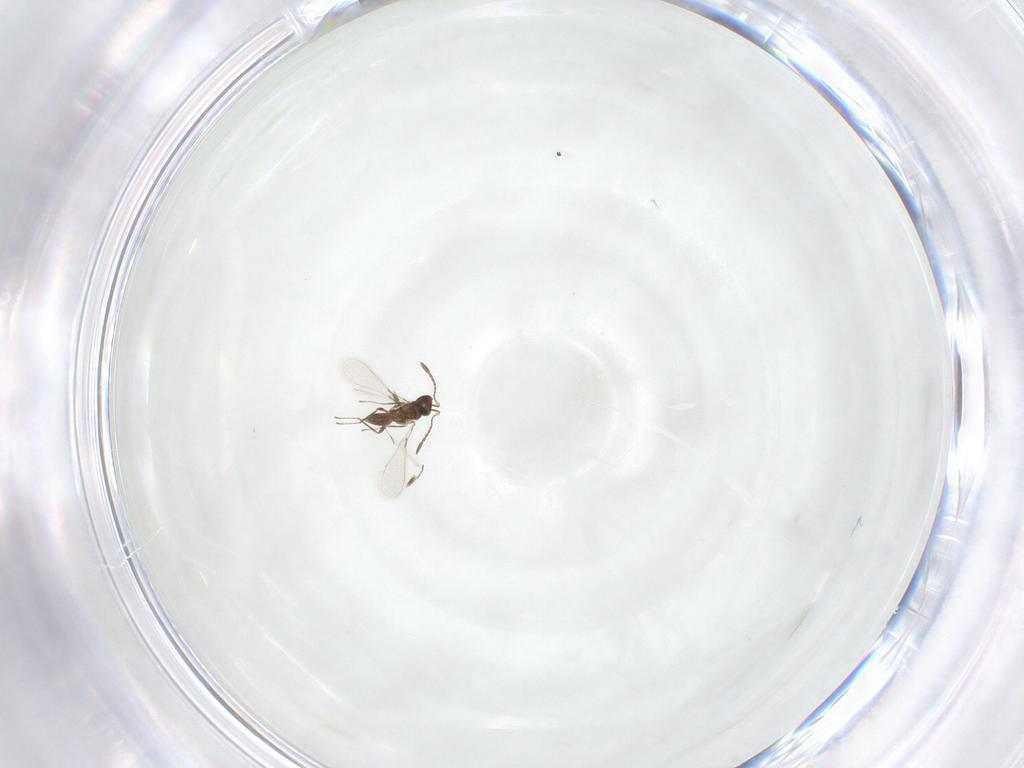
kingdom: Animalia
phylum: Arthropoda
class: Insecta
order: Hymenoptera
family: Mymaridae
